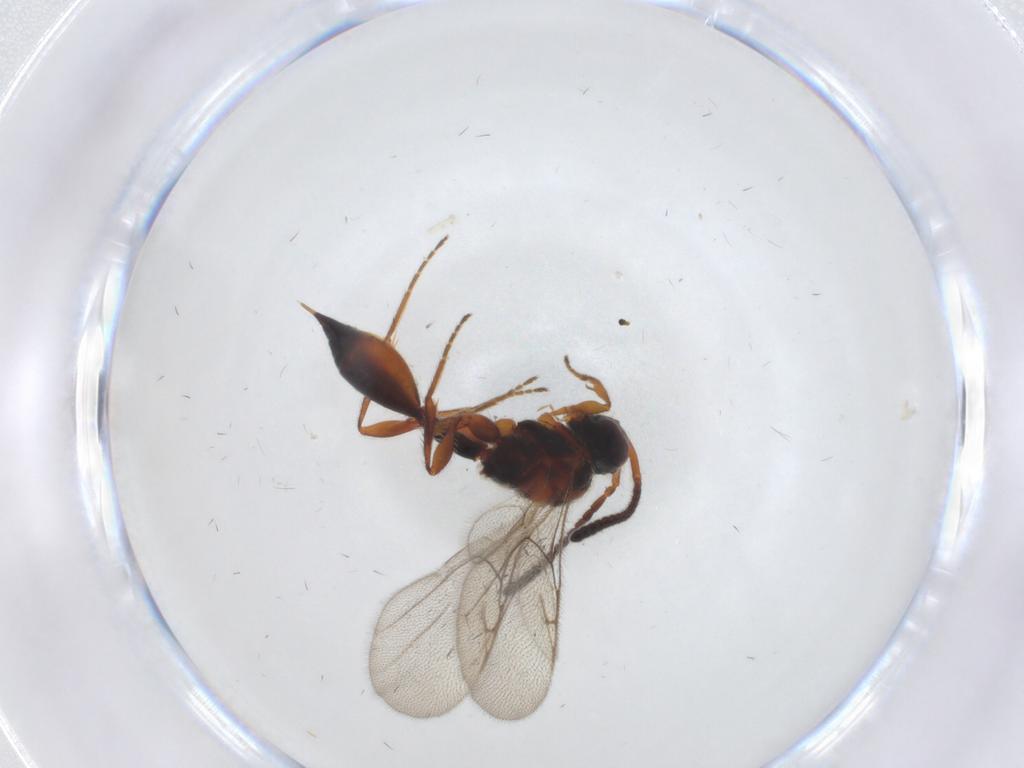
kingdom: Animalia
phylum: Arthropoda
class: Insecta
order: Hymenoptera
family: Diapriidae
